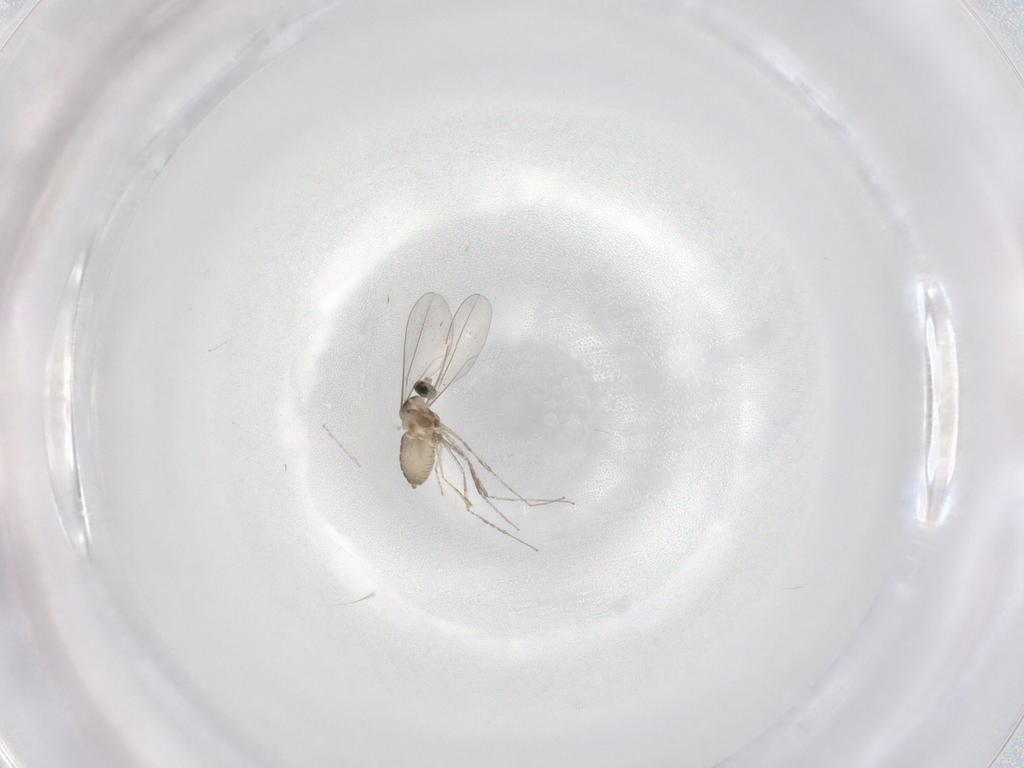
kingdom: Animalia
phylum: Arthropoda
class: Insecta
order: Diptera
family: Cecidomyiidae
